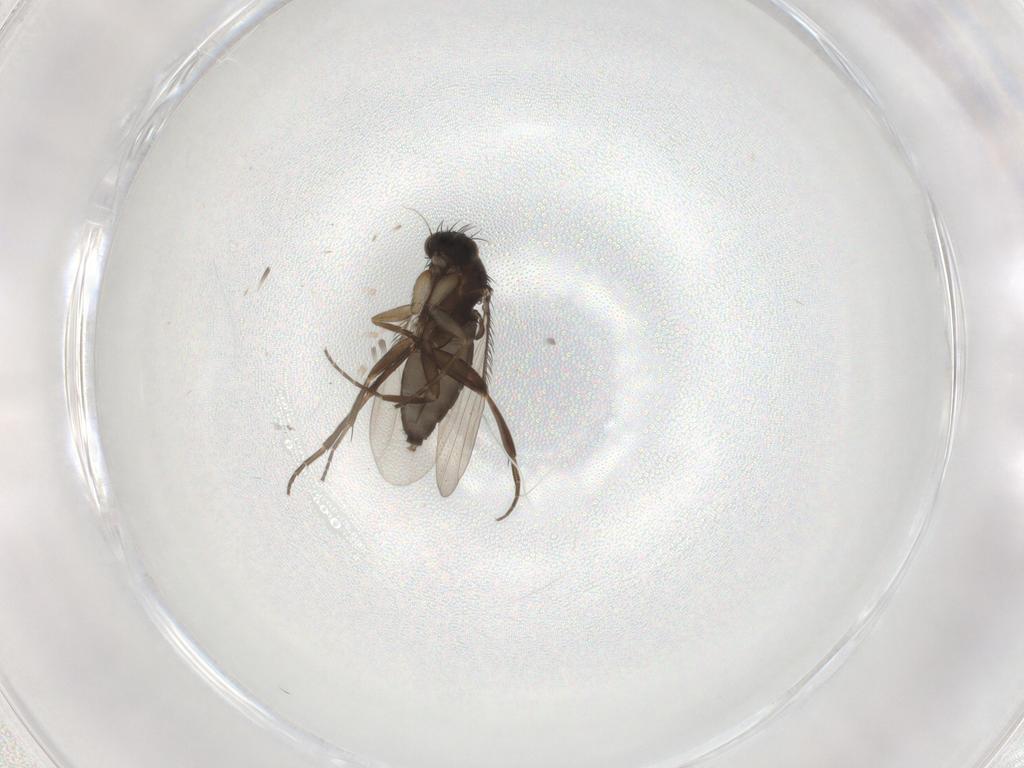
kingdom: Animalia
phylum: Arthropoda
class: Insecta
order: Diptera
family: Phoridae
